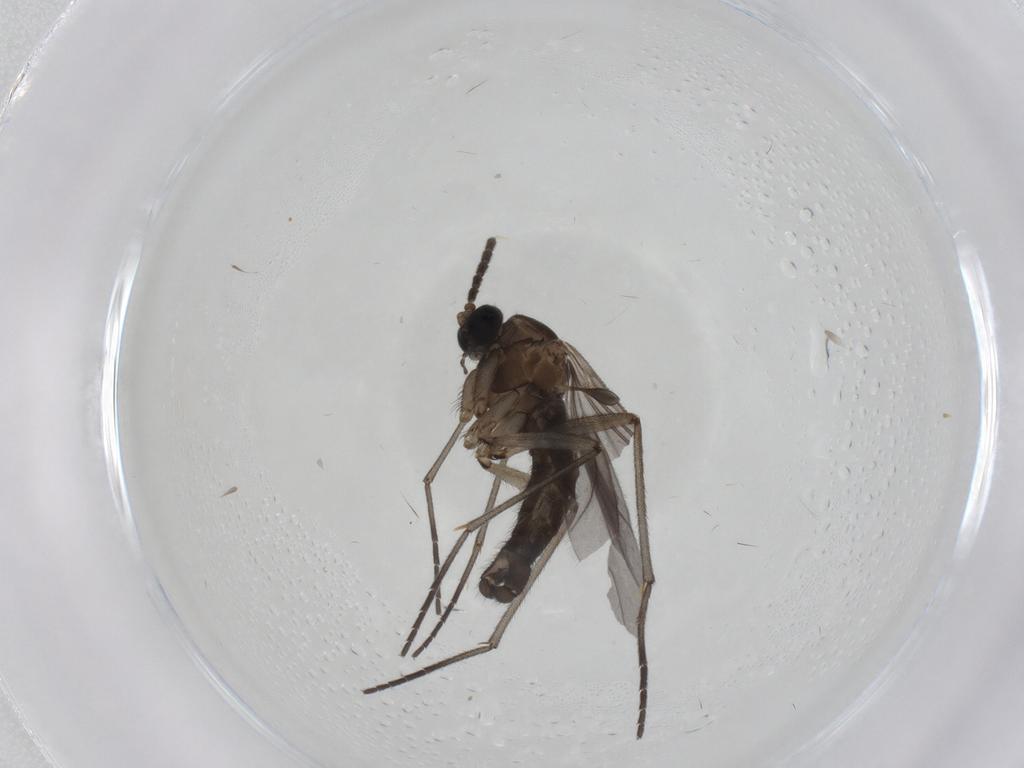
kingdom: Animalia
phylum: Arthropoda
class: Insecta
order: Diptera
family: Sciaridae
